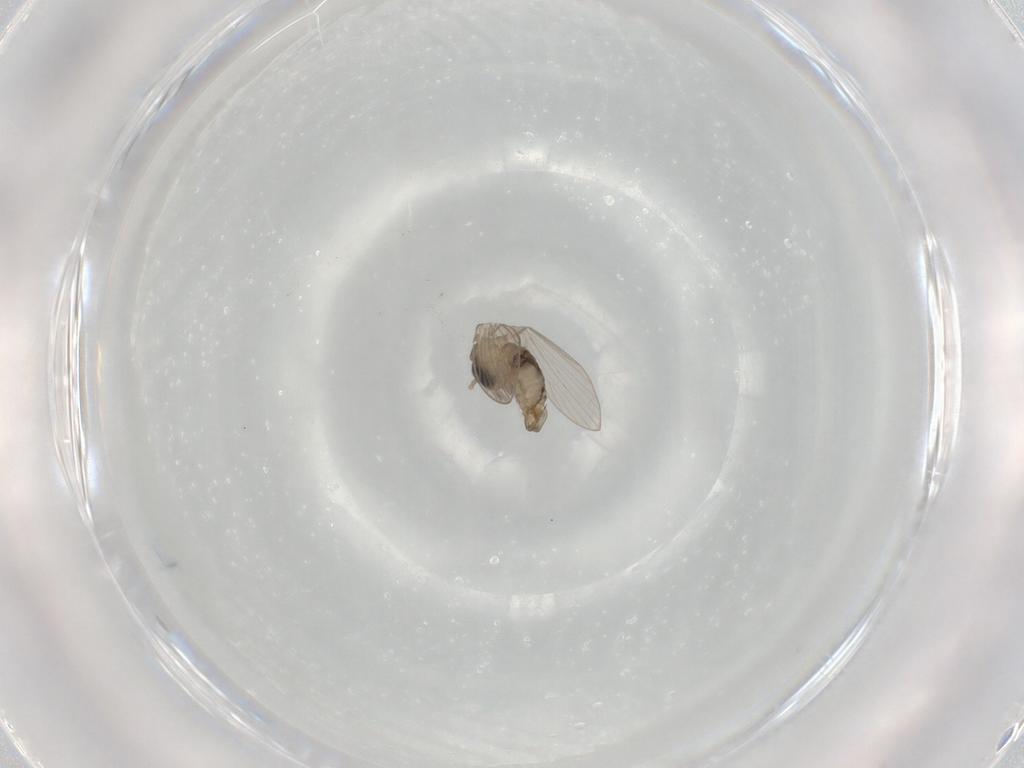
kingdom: Animalia
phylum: Arthropoda
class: Insecta
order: Diptera
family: Psychodidae
